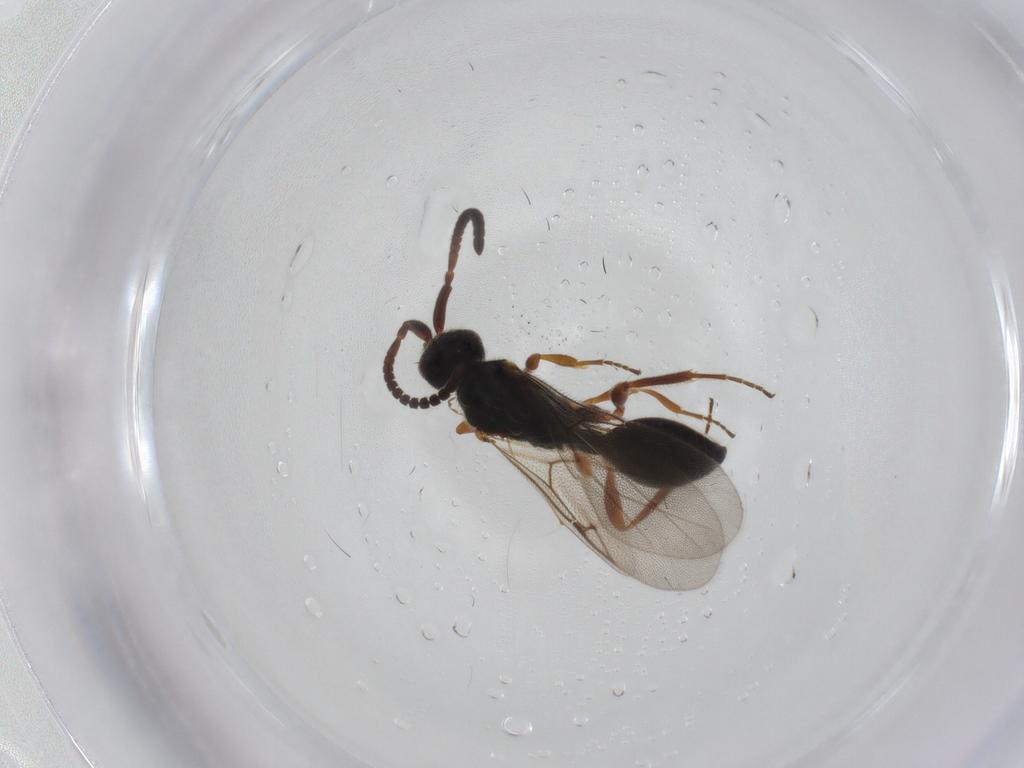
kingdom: Animalia
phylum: Arthropoda
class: Insecta
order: Hymenoptera
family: Diapriidae
